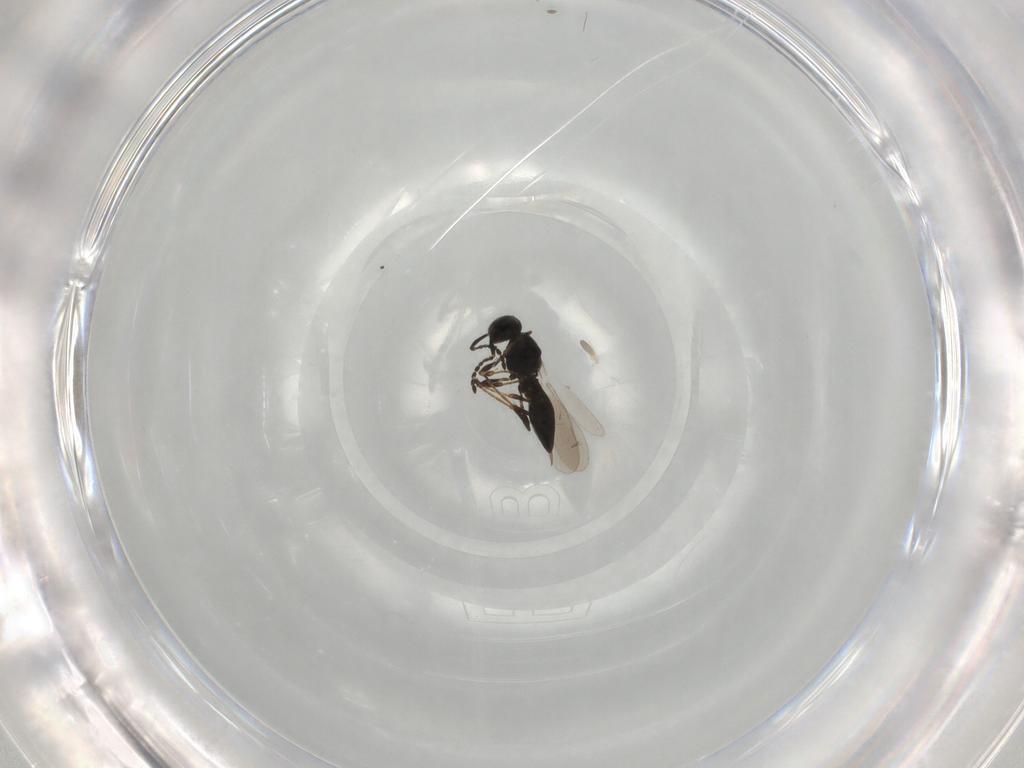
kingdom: Animalia
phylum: Arthropoda
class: Insecta
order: Hymenoptera
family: Platygastridae
